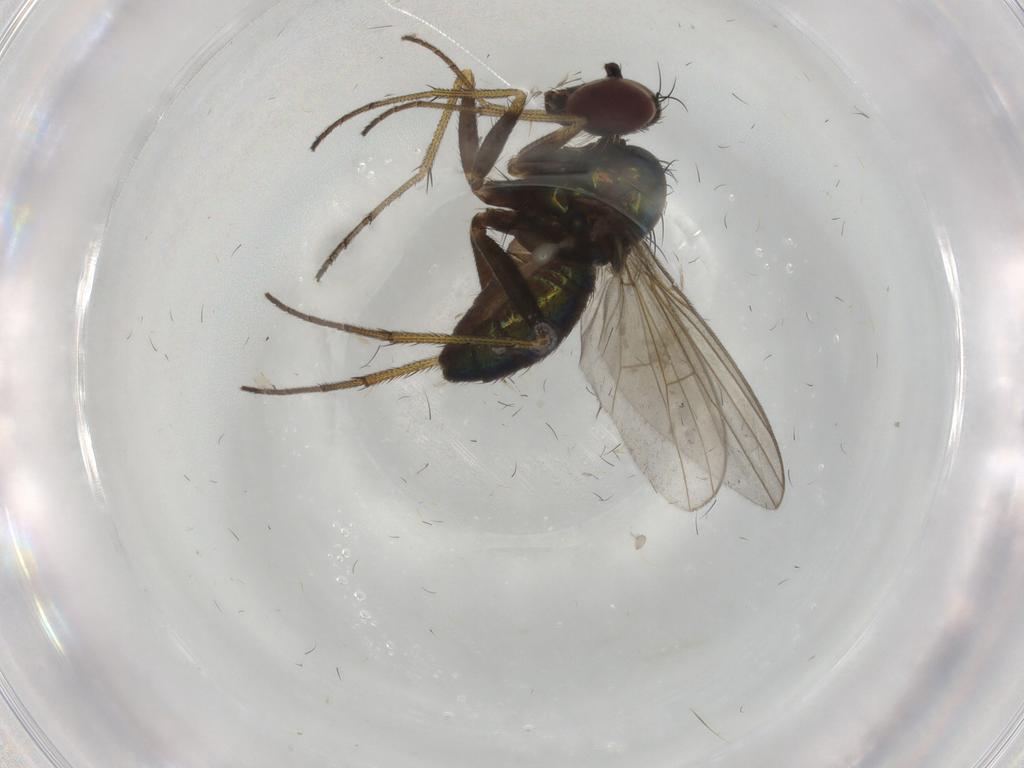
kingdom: Animalia
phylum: Arthropoda
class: Insecta
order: Diptera
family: Dolichopodidae
